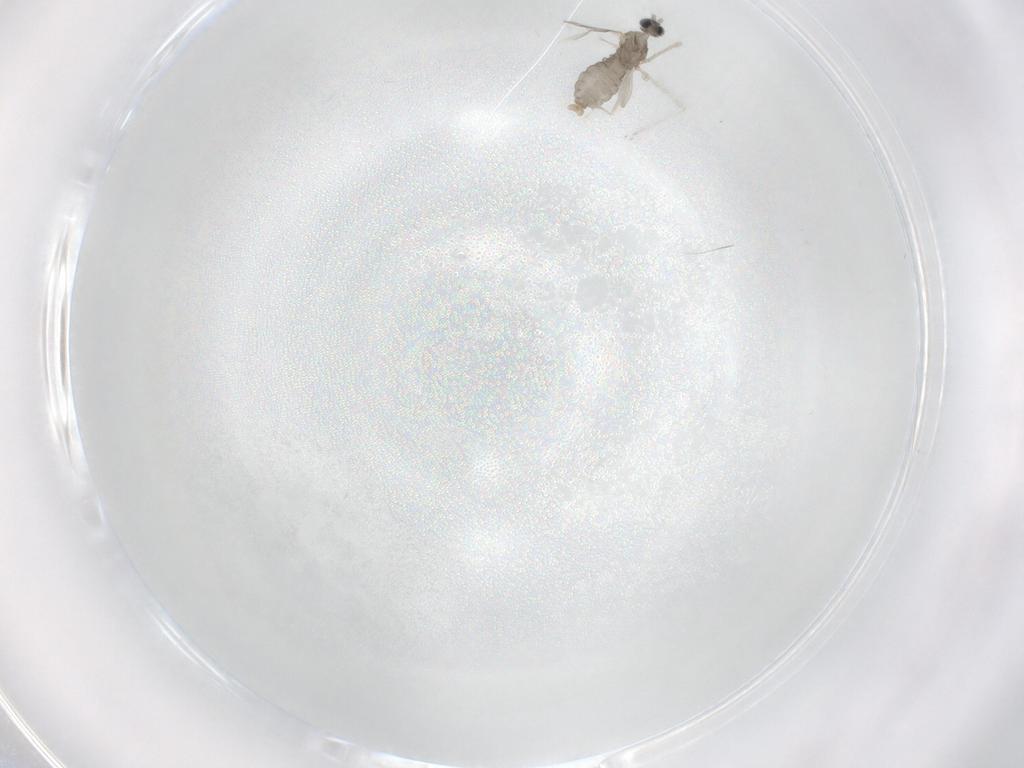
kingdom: Animalia
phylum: Arthropoda
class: Insecta
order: Diptera
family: Cecidomyiidae
